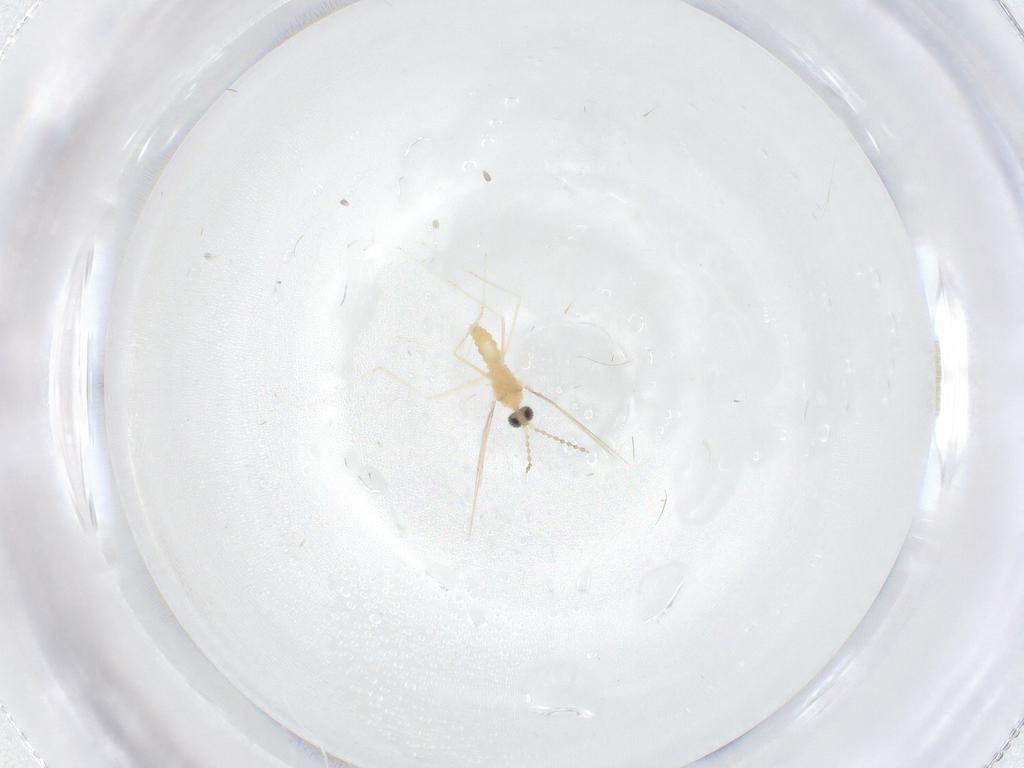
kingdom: Animalia
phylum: Arthropoda
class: Insecta
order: Diptera
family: Cecidomyiidae
